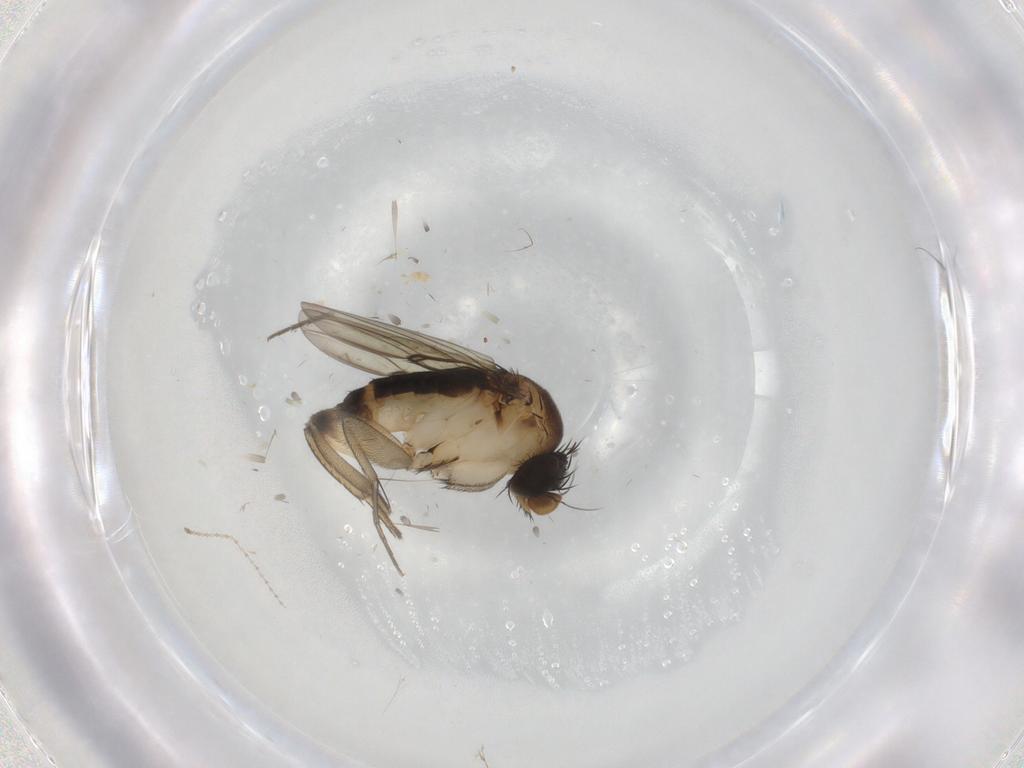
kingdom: Animalia
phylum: Arthropoda
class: Insecta
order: Diptera
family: Phoridae
